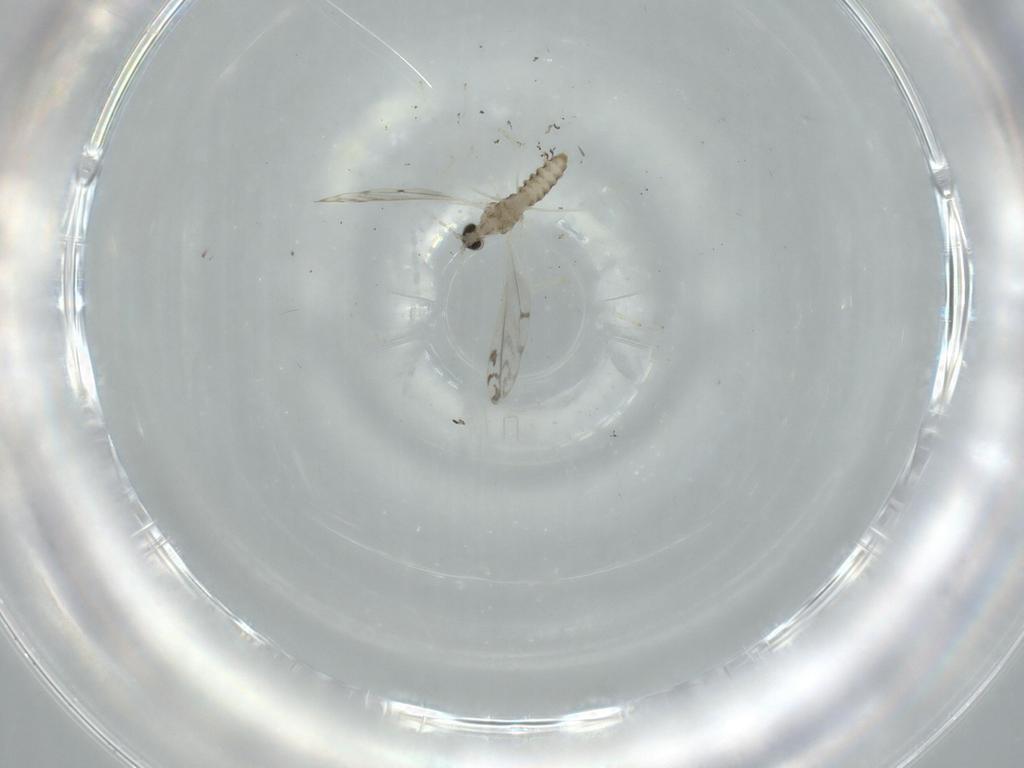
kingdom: Animalia
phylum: Arthropoda
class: Insecta
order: Diptera
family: Cecidomyiidae
